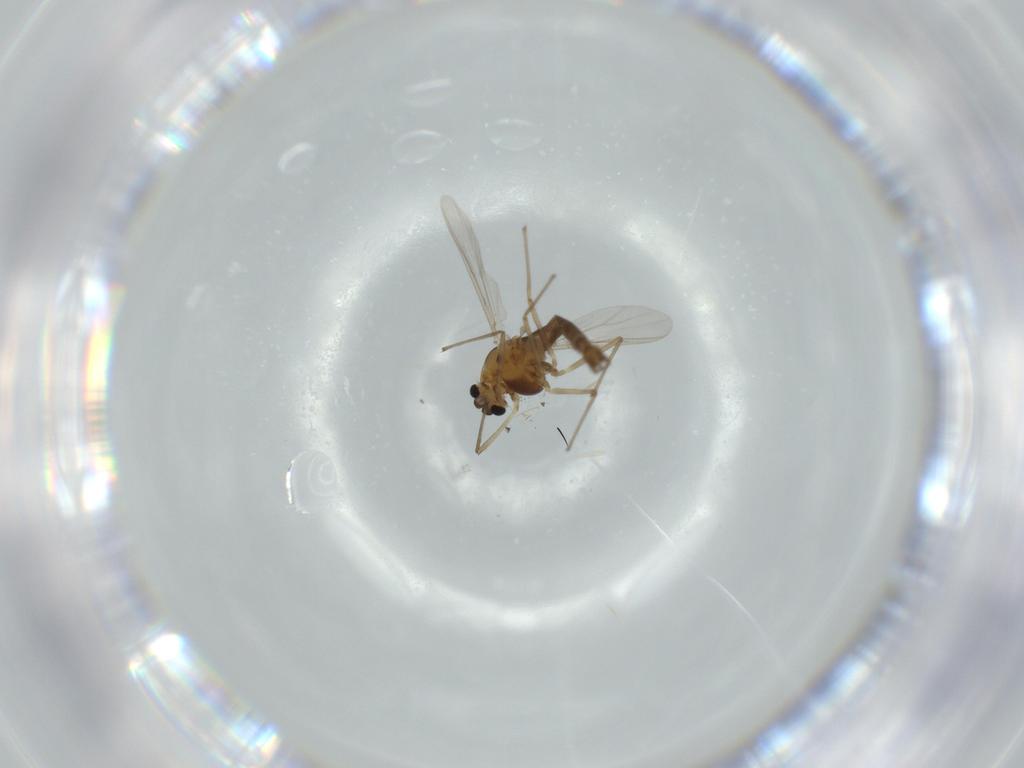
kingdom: Animalia
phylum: Arthropoda
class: Insecta
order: Diptera
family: Chironomidae
